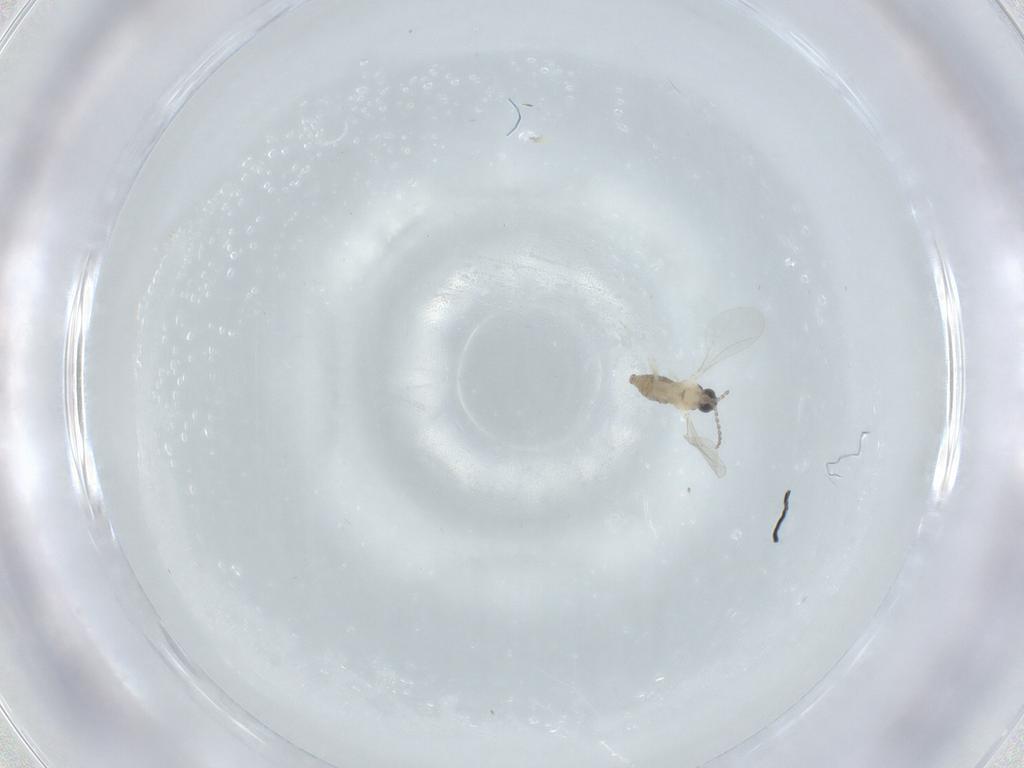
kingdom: Animalia
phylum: Arthropoda
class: Insecta
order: Diptera
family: Cecidomyiidae
